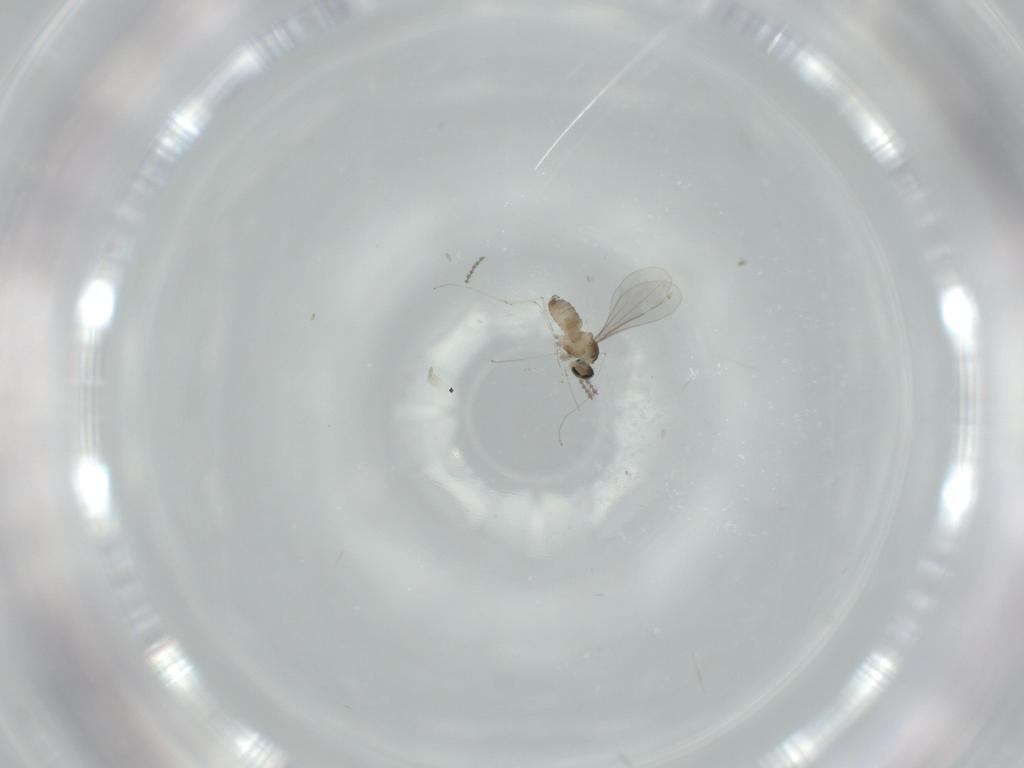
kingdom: Animalia
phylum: Arthropoda
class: Insecta
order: Diptera
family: Cecidomyiidae
